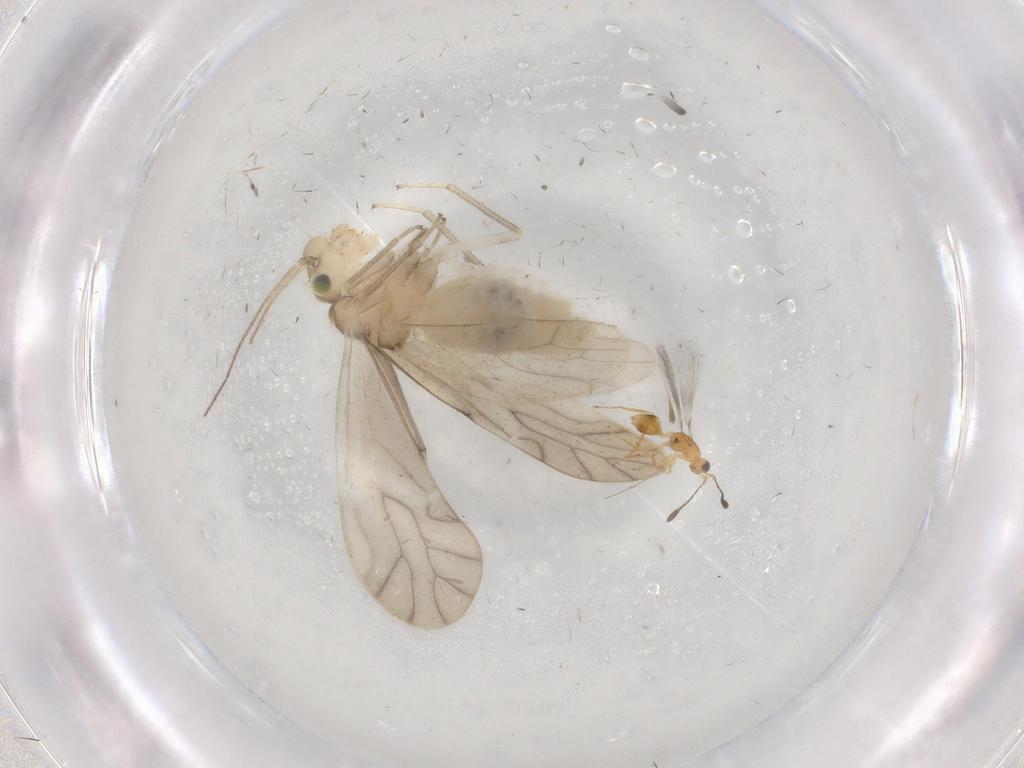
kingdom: Animalia
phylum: Arthropoda
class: Insecta
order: Psocodea
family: Caeciliusidae
